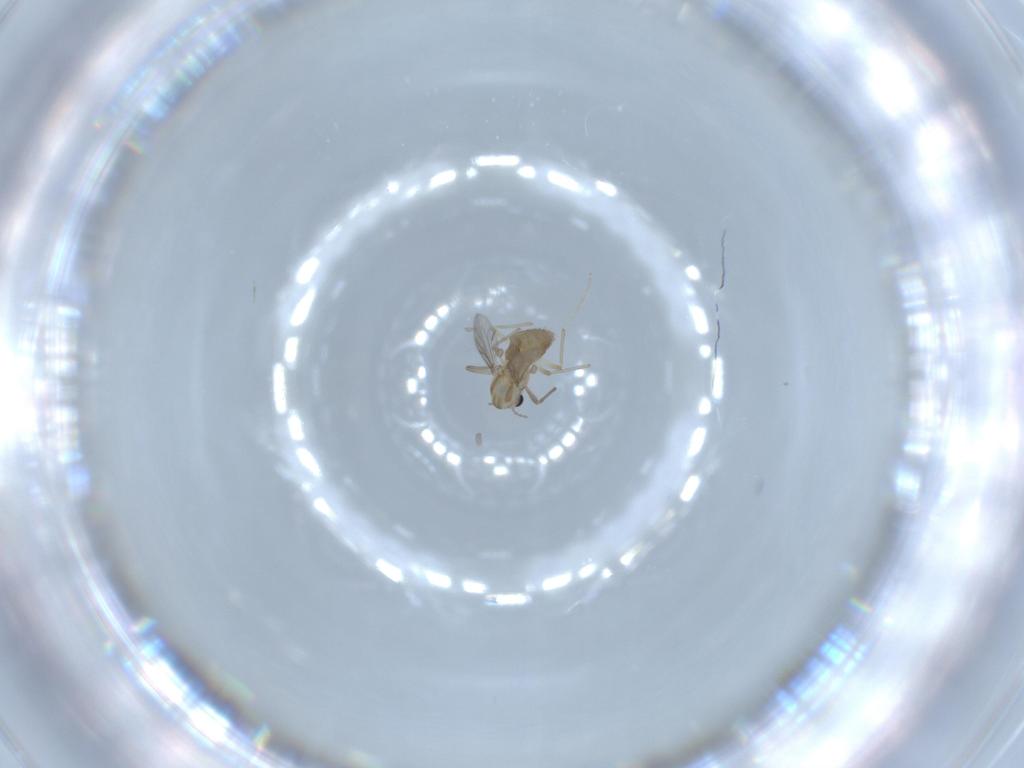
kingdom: Animalia
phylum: Arthropoda
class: Insecta
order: Diptera
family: Chironomidae
